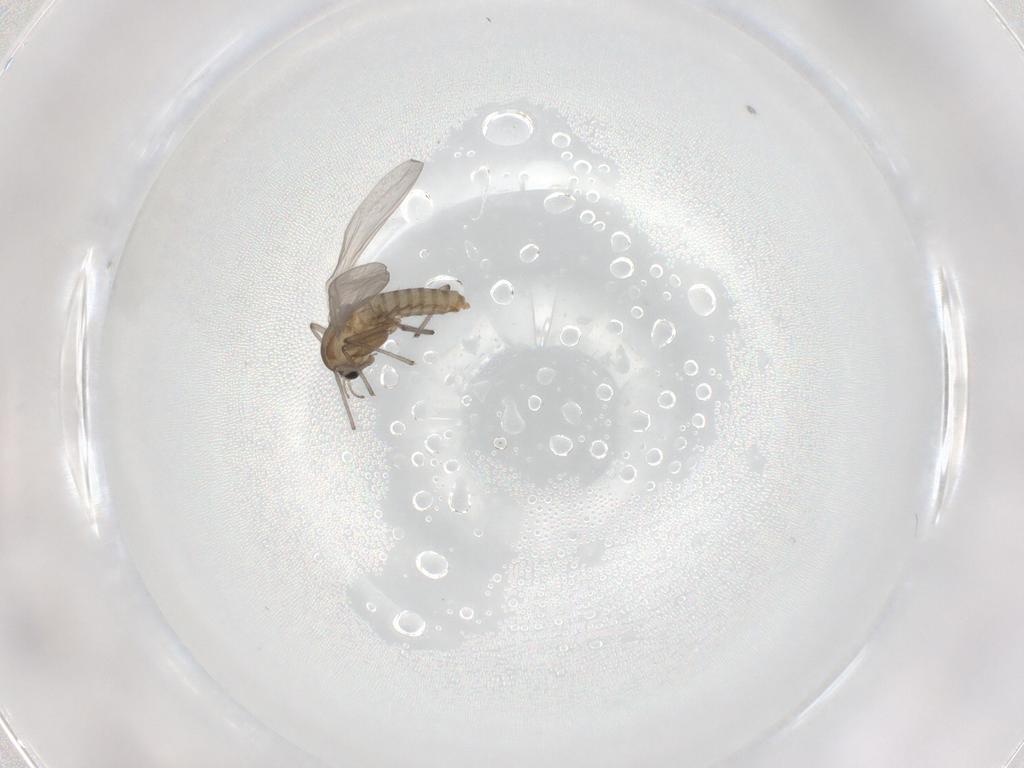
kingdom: Animalia
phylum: Arthropoda
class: Insecta
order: Diptera
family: Chironomidae
